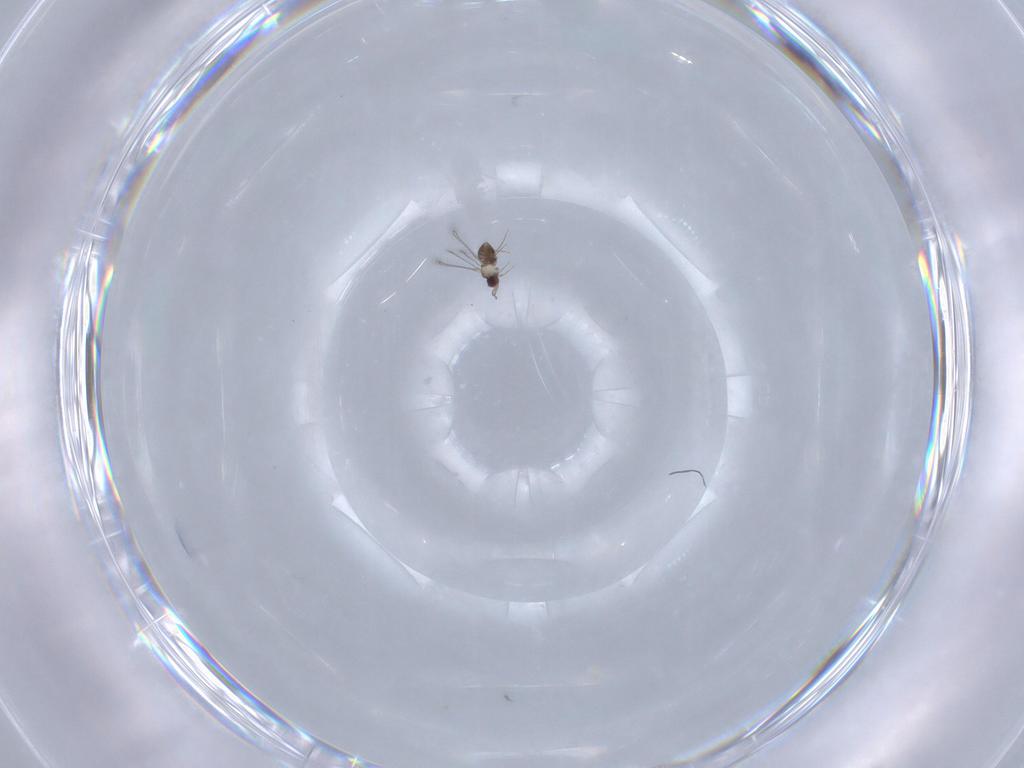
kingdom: Animalia
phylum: Arthropoda
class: Insecta
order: Hymenoptera
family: Mymaridae
